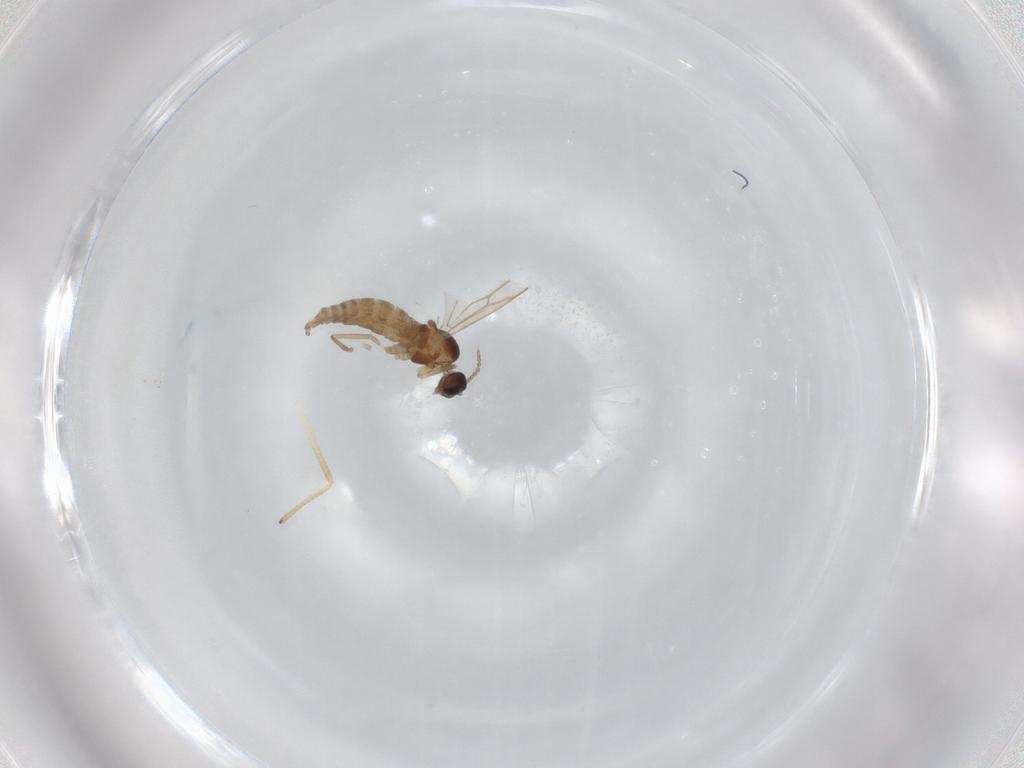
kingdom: Animalia
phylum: Arthropoda
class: Insecta
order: Diptera
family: Cecidomyiidae
